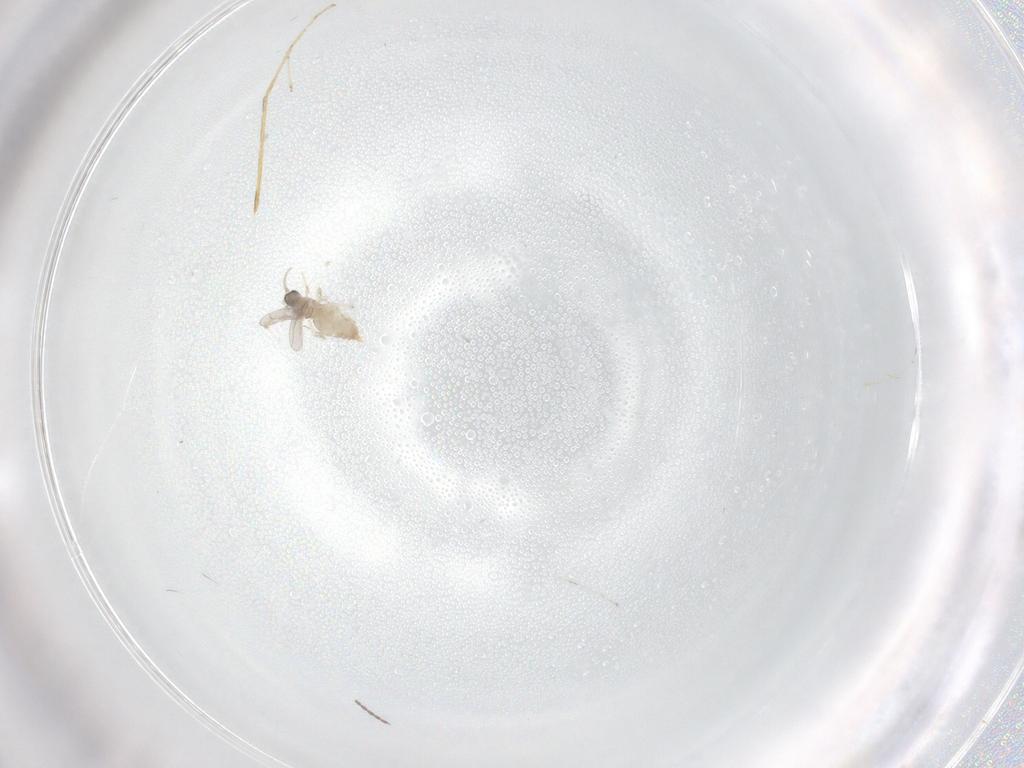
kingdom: Animalia
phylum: Arthropoda
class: Insecta
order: Diptera
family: Cecidomyiidae
